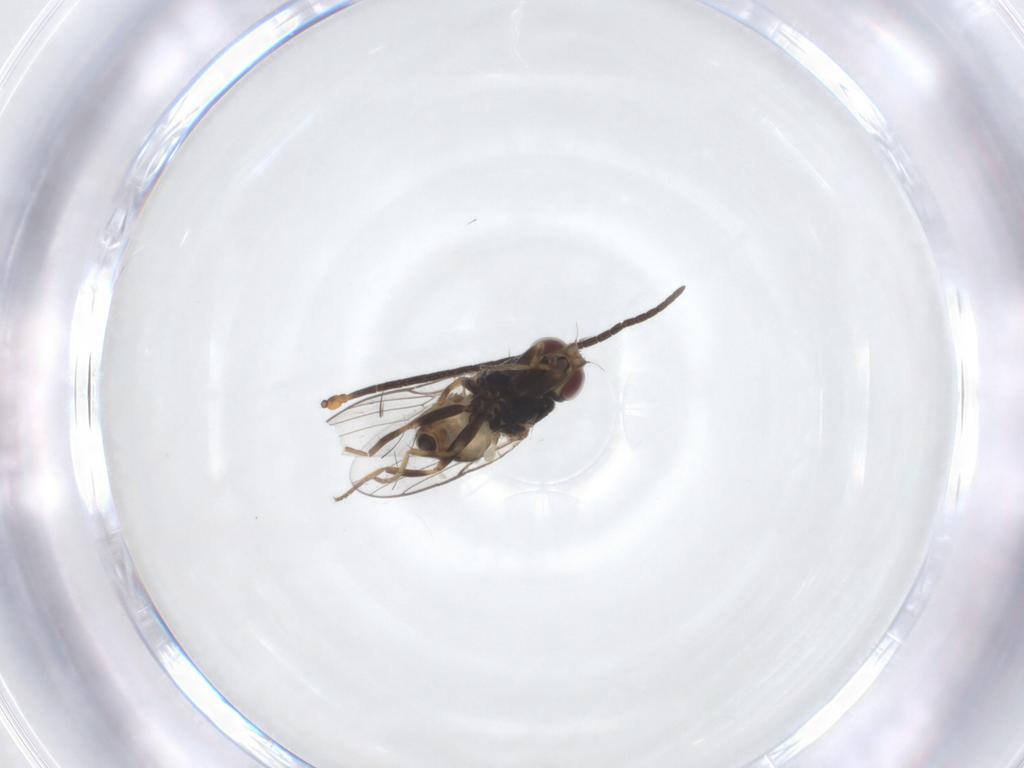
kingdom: Animalia
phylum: Arthropoda
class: Insecta
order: Diptera
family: Chloropidae
